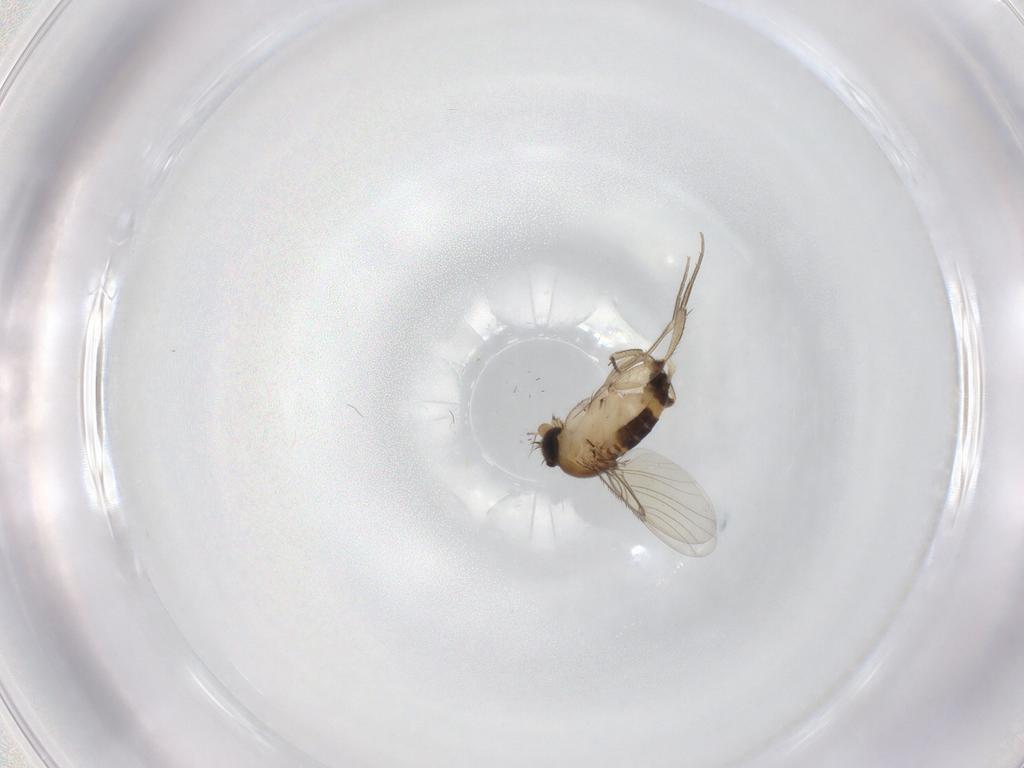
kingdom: Animalia
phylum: Arthropoda
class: Insecta
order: Diptera
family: Phoridae
